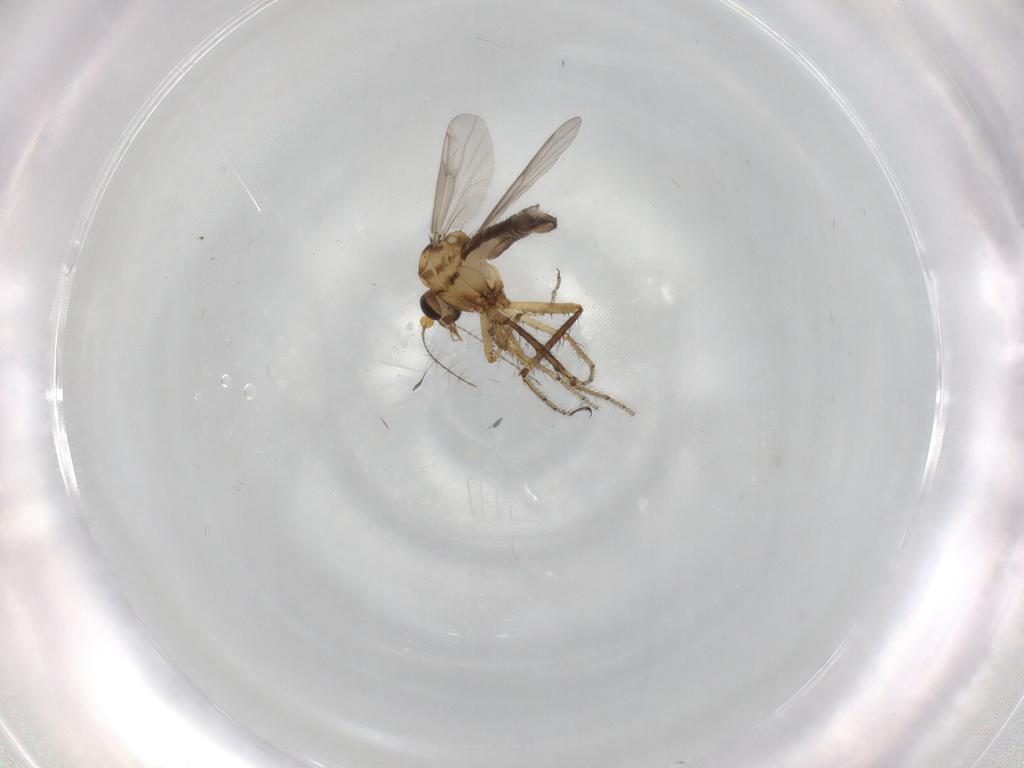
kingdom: Animalia
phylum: Arthropoda
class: Insecta
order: Diptera
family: Ceratopogonidae
